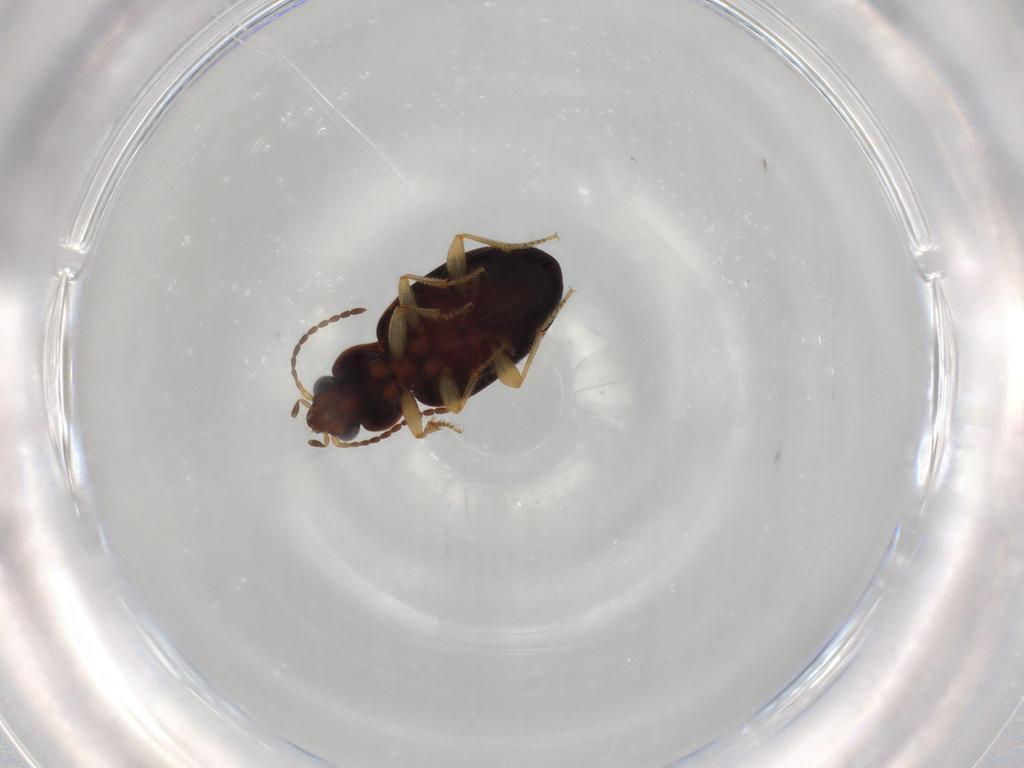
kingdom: Animalia
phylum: Arthropoda
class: Insecta
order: Coleoptera
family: Carabidae
